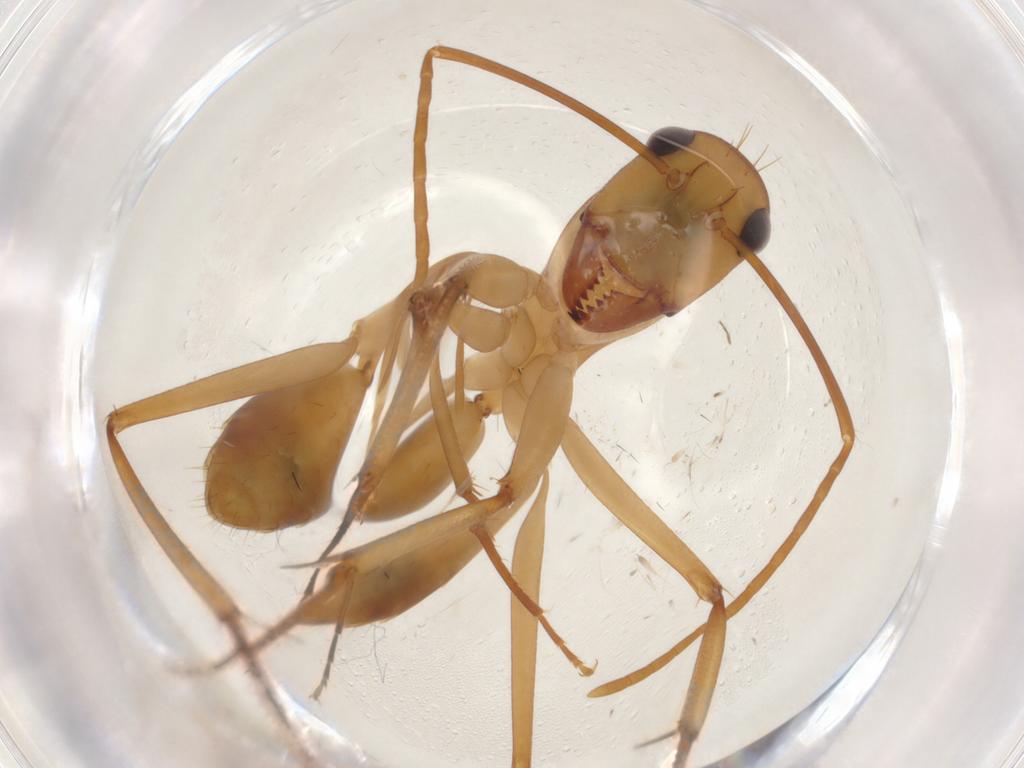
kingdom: Animalia
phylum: Arthropoda
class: Insecta
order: Hymenoptera
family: Formicidae
